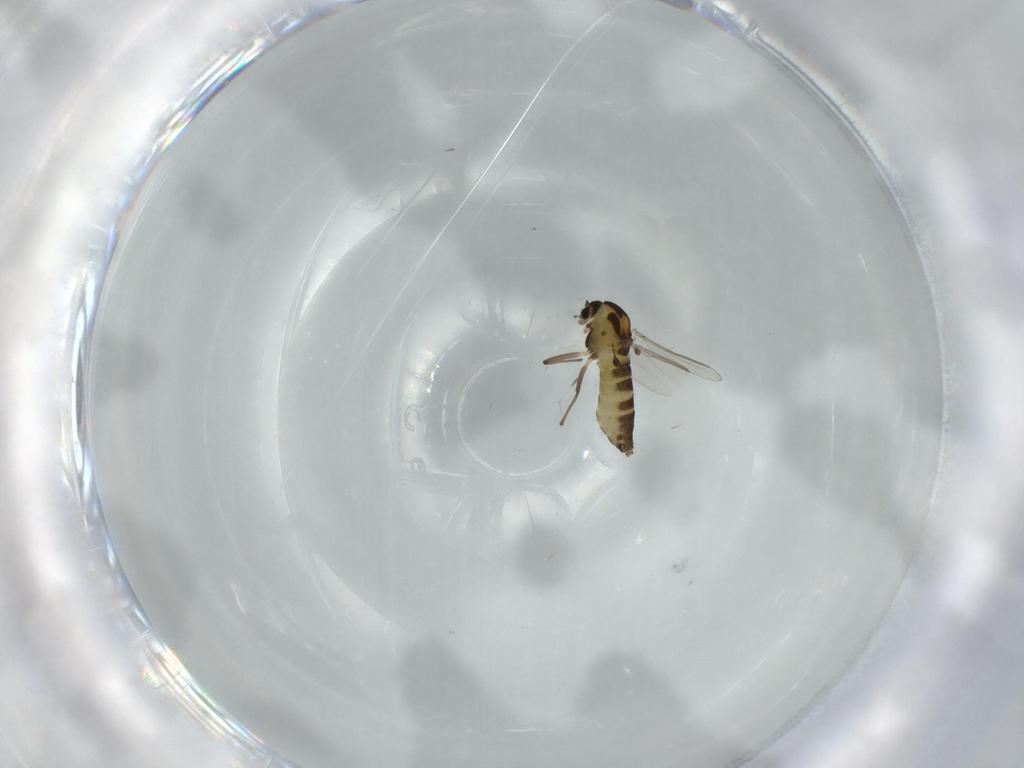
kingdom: Animalia
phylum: Arthropoda
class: Insecta
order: Diptera
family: Chironomidae
